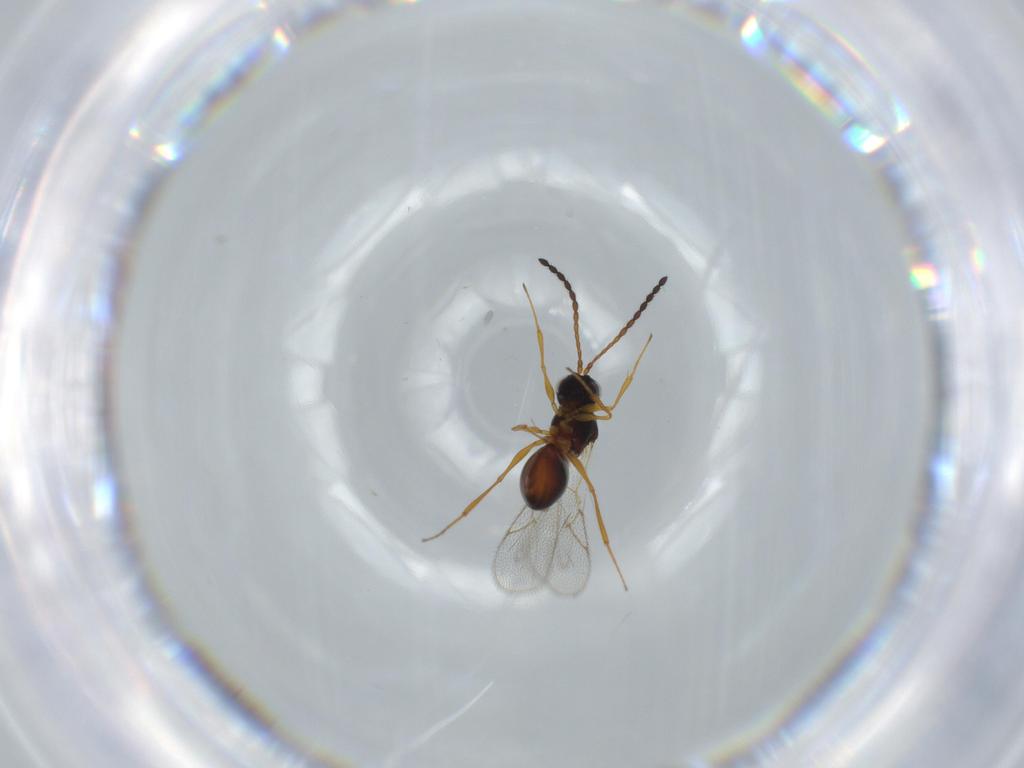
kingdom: Animalia
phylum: Arthropoda
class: Insecta
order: Hymenoptera
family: Figitidae
